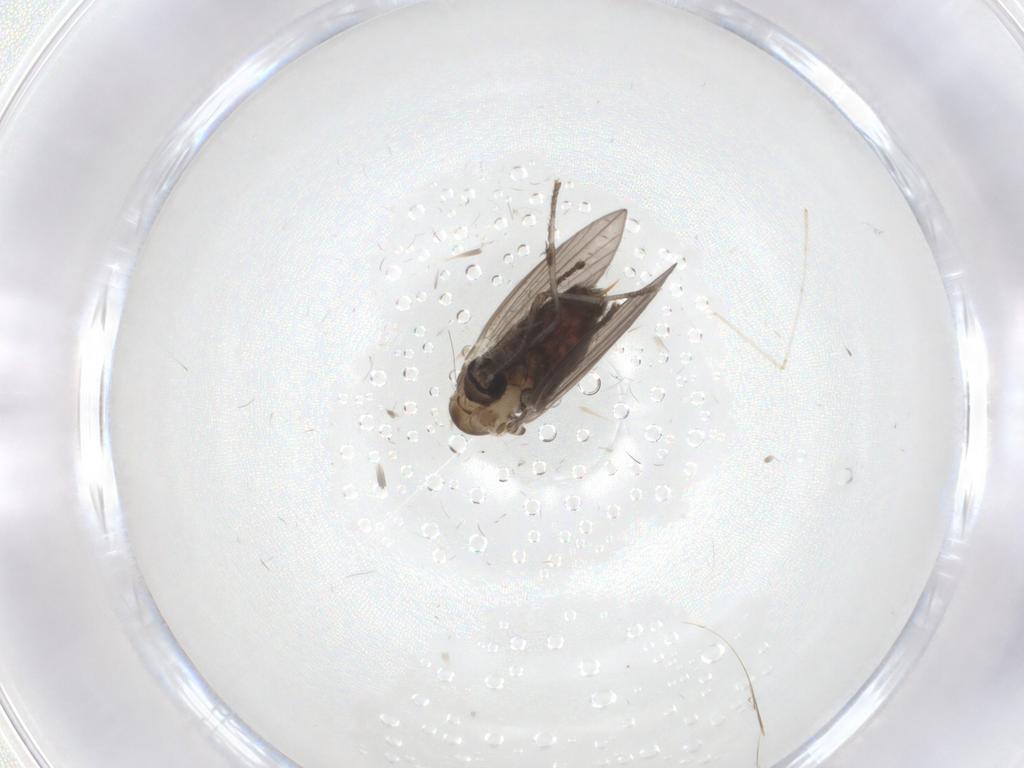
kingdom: Animalia
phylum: Arthropoda
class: Insecta
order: Diptera
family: Psychodidae
